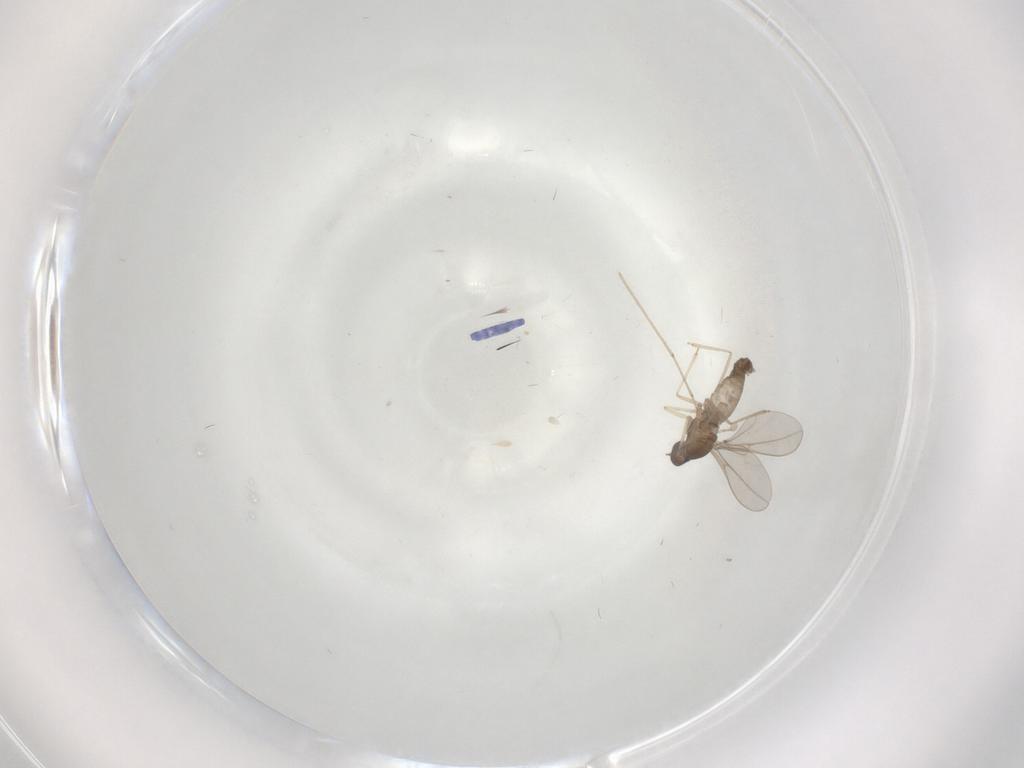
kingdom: Animalia
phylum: Arthropoda
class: Insecta
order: Diptera
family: Cecidomyiidae
